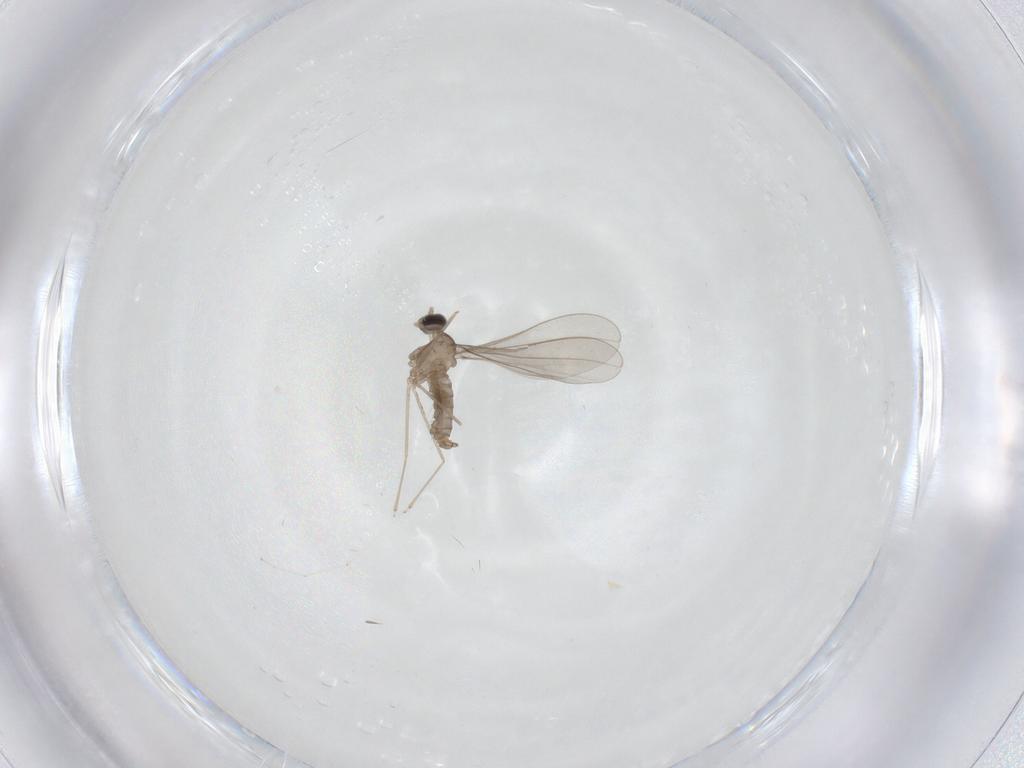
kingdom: Animalia
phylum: Arthropoda
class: Insecta
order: Diptera
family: Cecidomyiidae
